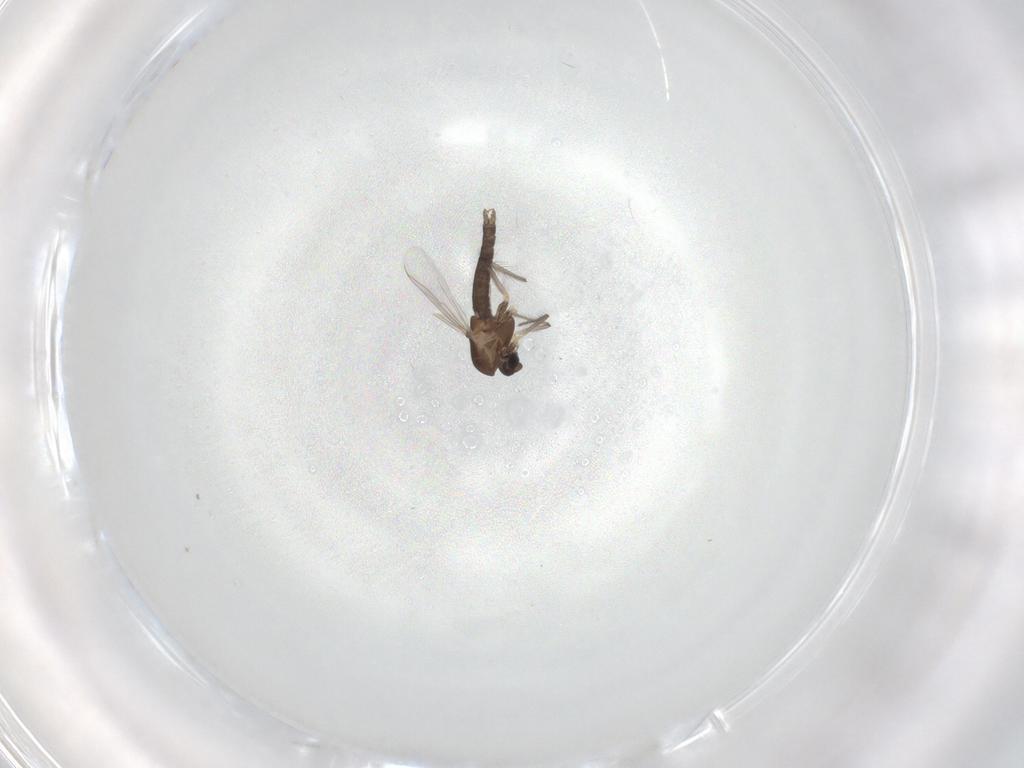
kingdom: Animalia
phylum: Arthropoda
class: Insecta
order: Diptera
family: Chironomidae
